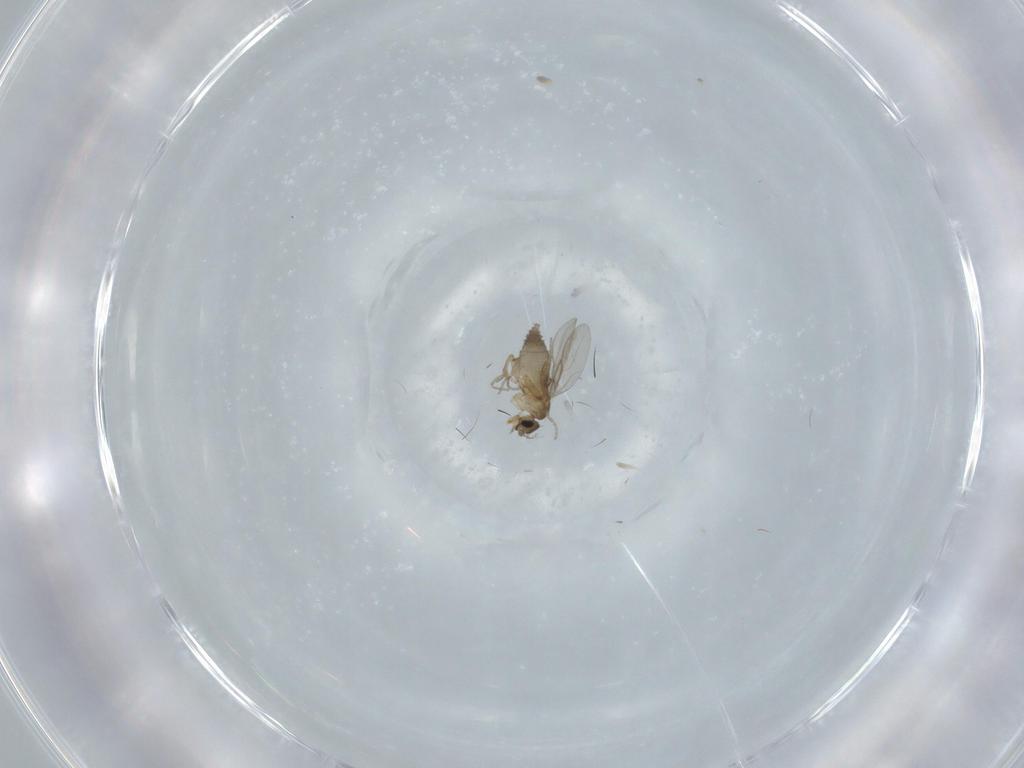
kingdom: Animalia
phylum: Arthropoda
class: Insecta
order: Diptera
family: Phoridae
